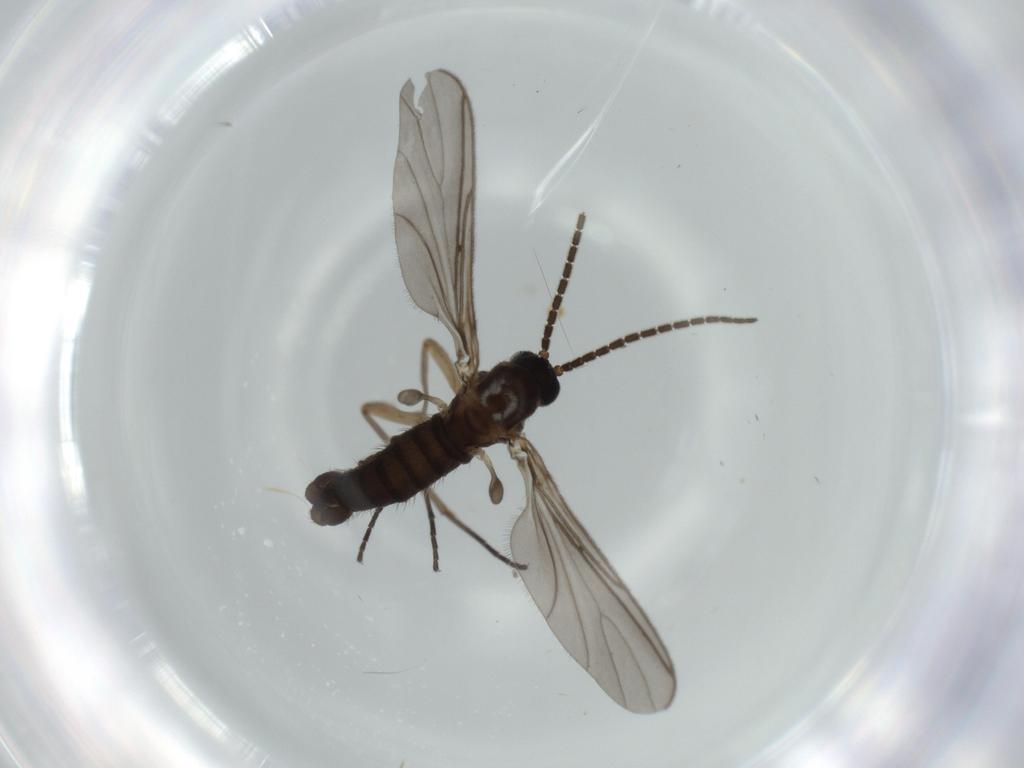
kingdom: Animalia
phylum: Arthropoda
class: Insecta
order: Diptera
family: Sciaridae
